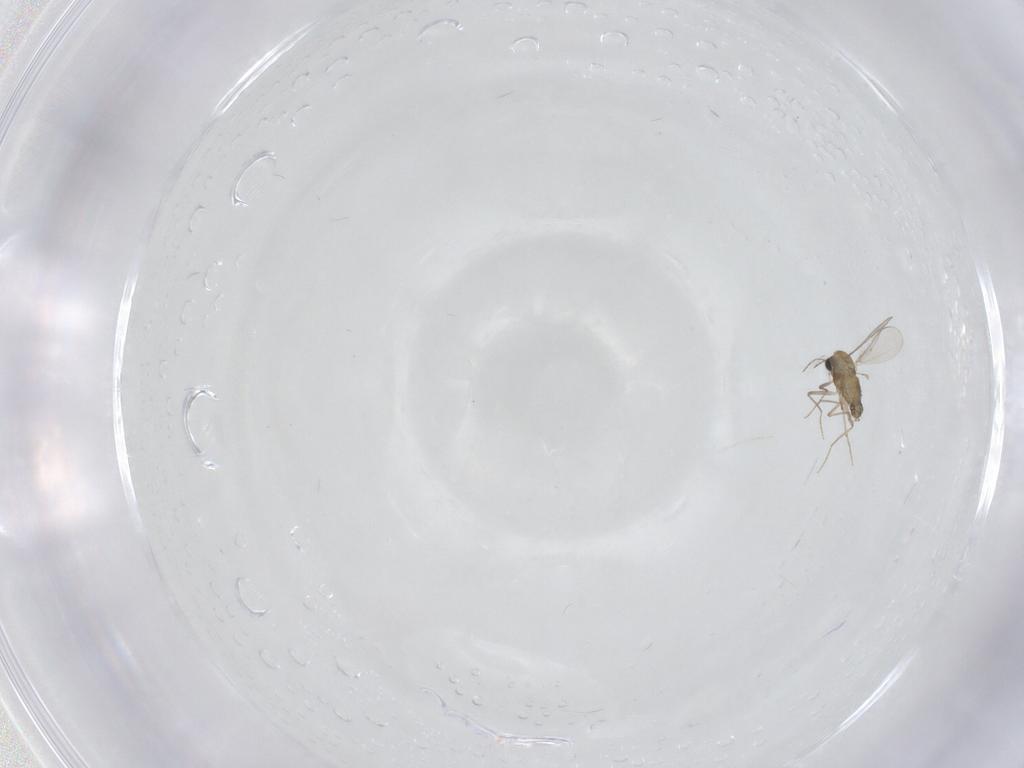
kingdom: Animalia
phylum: Arthropoda
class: Insecta
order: Diptera
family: Chironomidae
